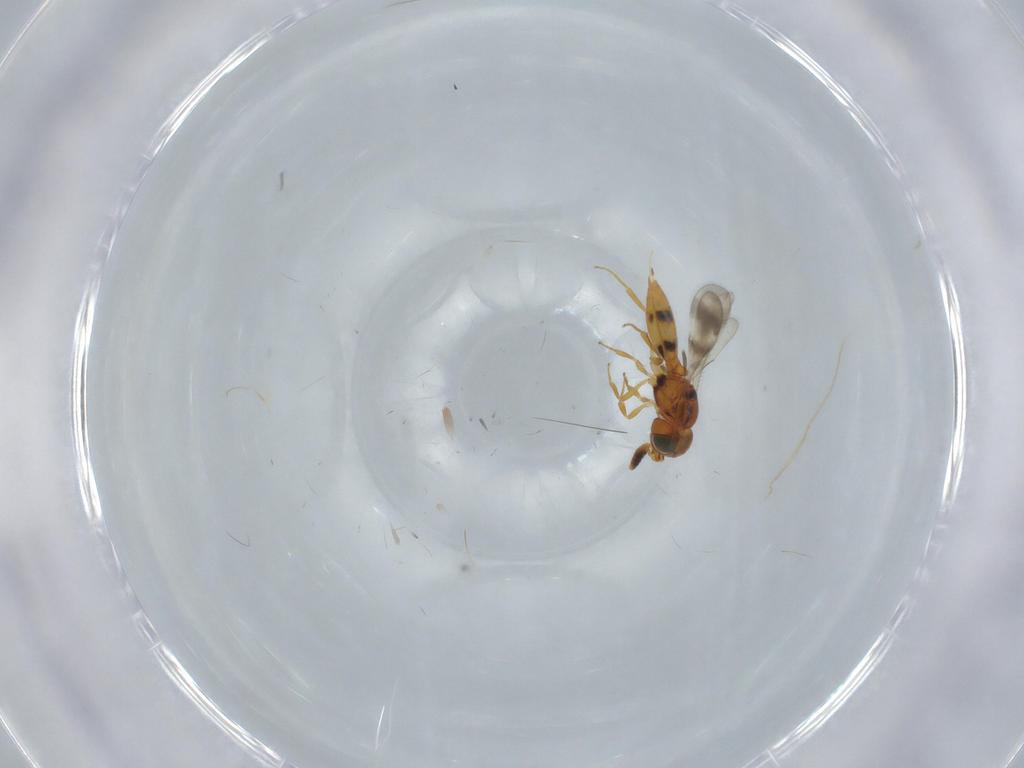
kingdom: Animalia
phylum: Arthropoda
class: Insecta
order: Hymenoptera
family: Scelionidae
